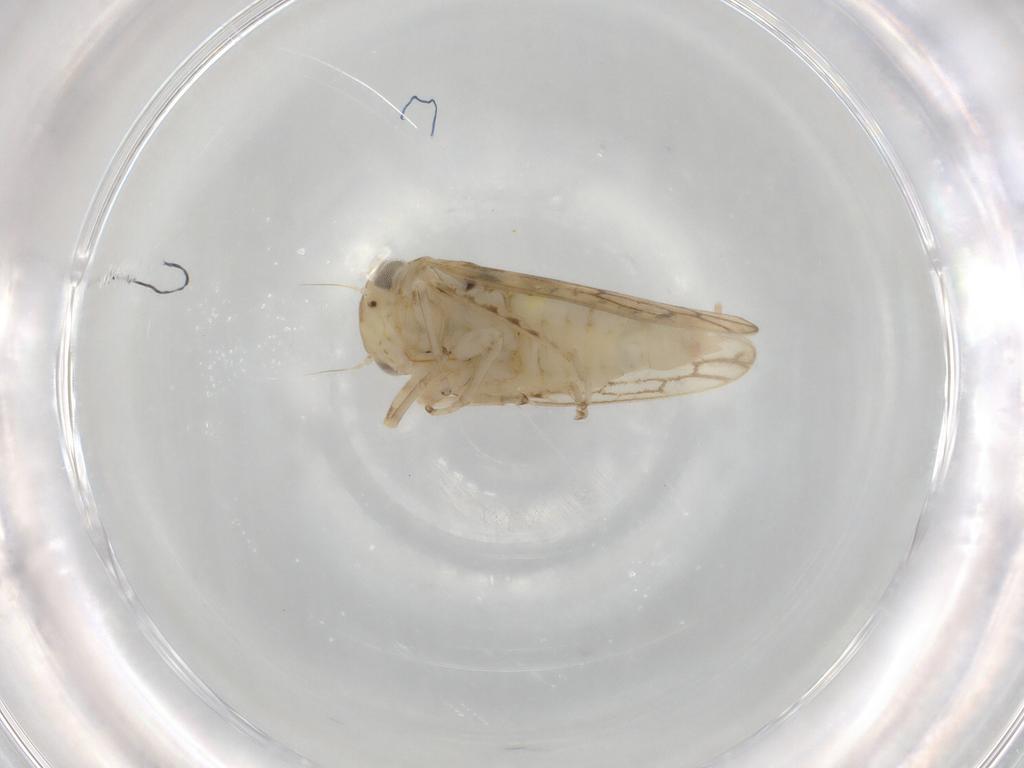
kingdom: Animalia
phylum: Arthropoda
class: Insecta
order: Hemiptera
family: Cicadellidae
